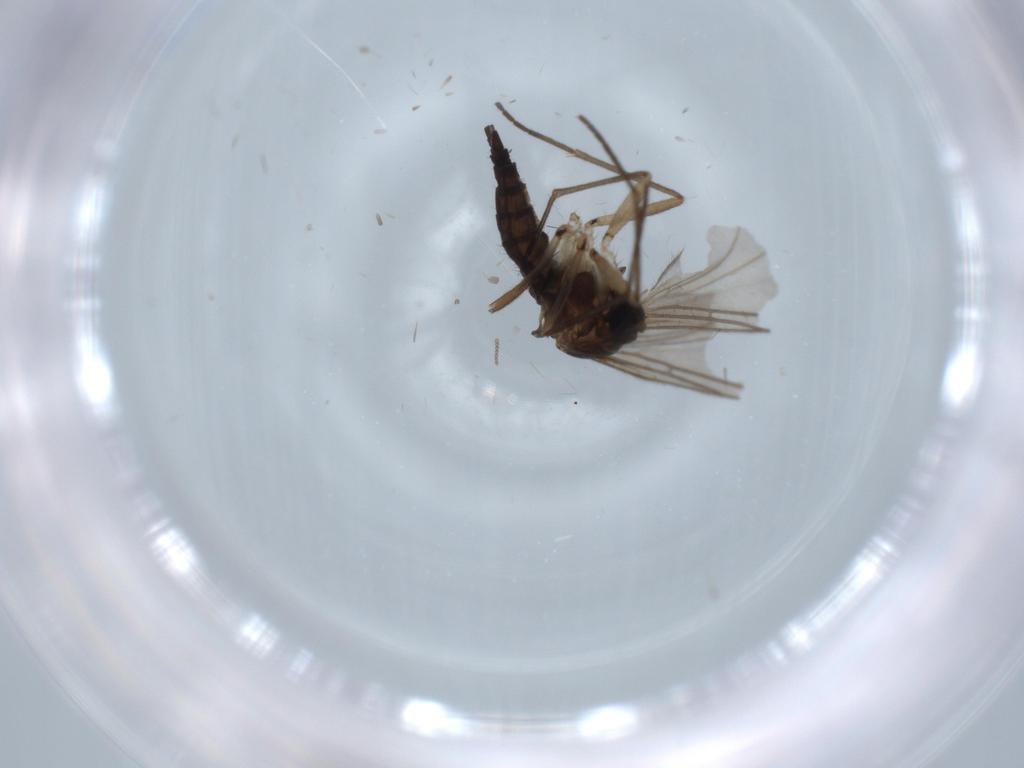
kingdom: Animalia
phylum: Arthropoda
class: Insecta
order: Diptera
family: Sciaridae
